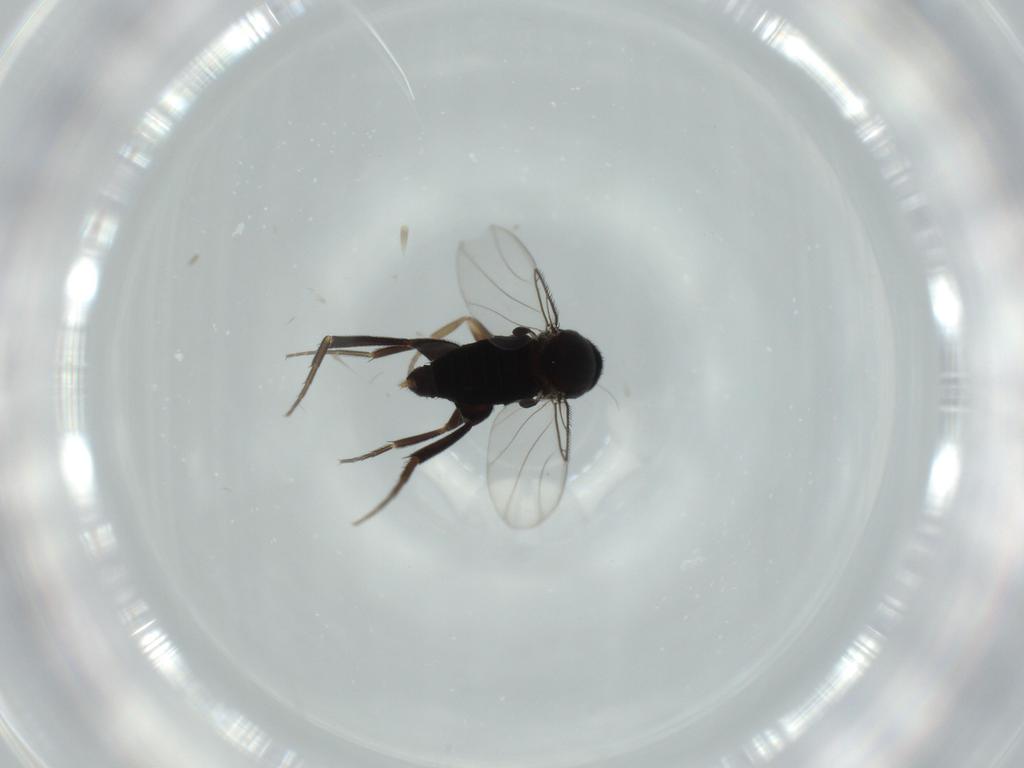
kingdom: Animalia
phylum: Arthropoda
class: Insecta
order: Diptera
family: Phoridae
